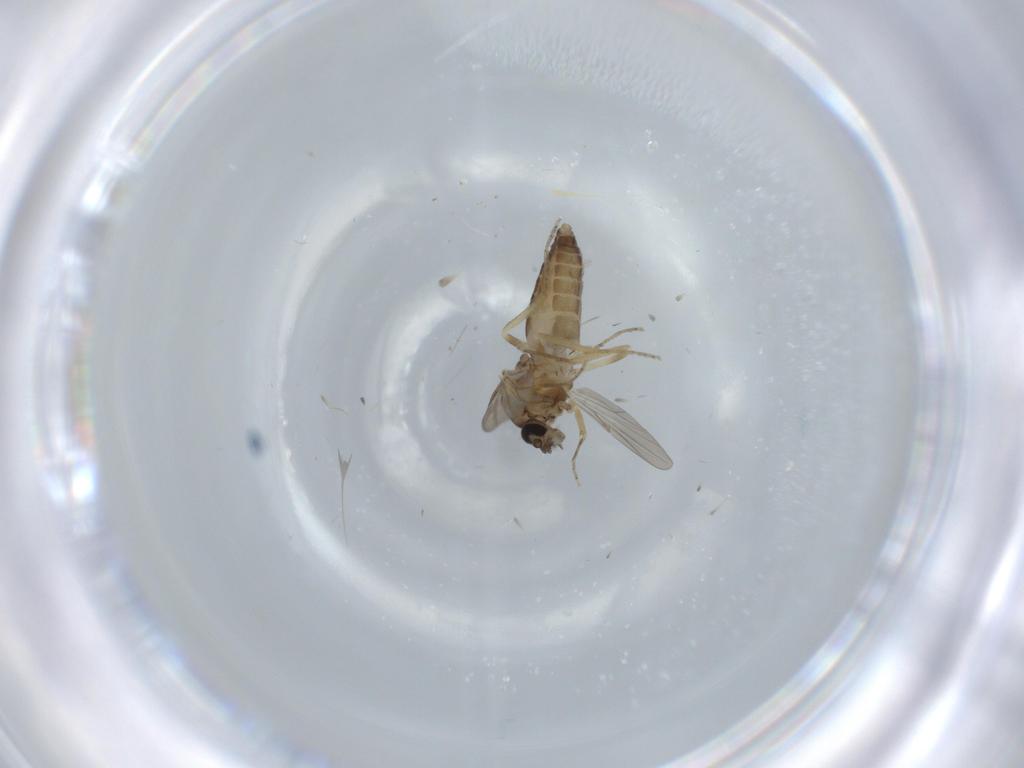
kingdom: Animalia
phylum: Arthropoda
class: Insecta
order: Diptera
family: Ceratopogonidae
